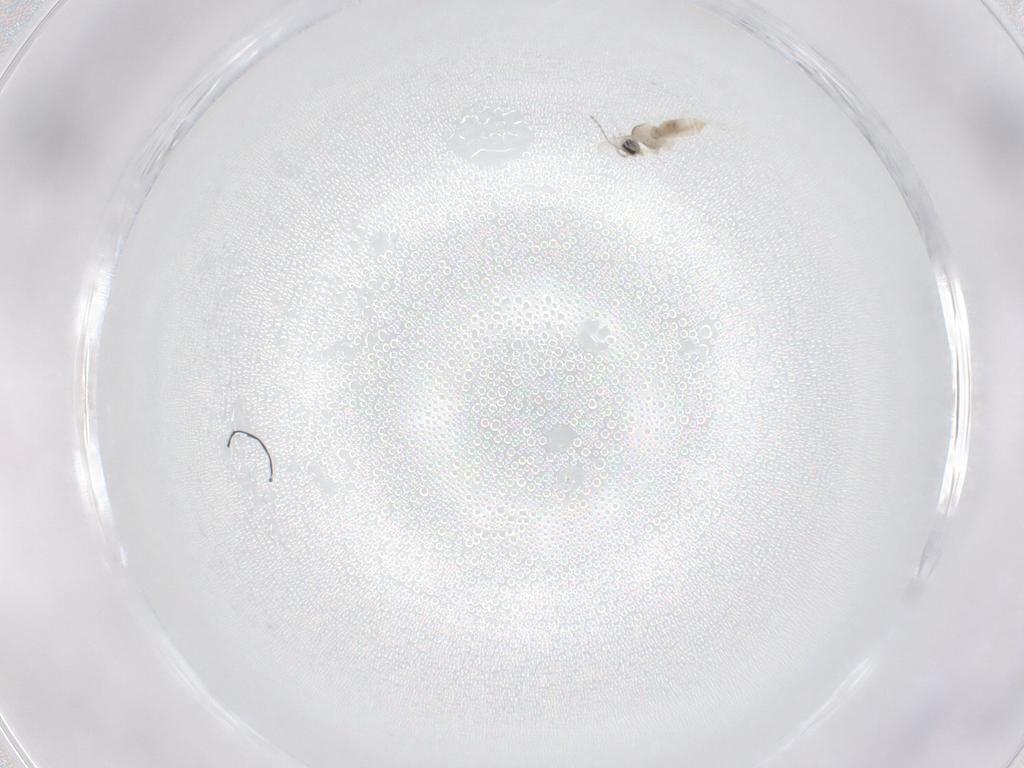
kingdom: Animalia
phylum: Arthropoda
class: Insecta
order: Diptera
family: Cecidomyiidae
